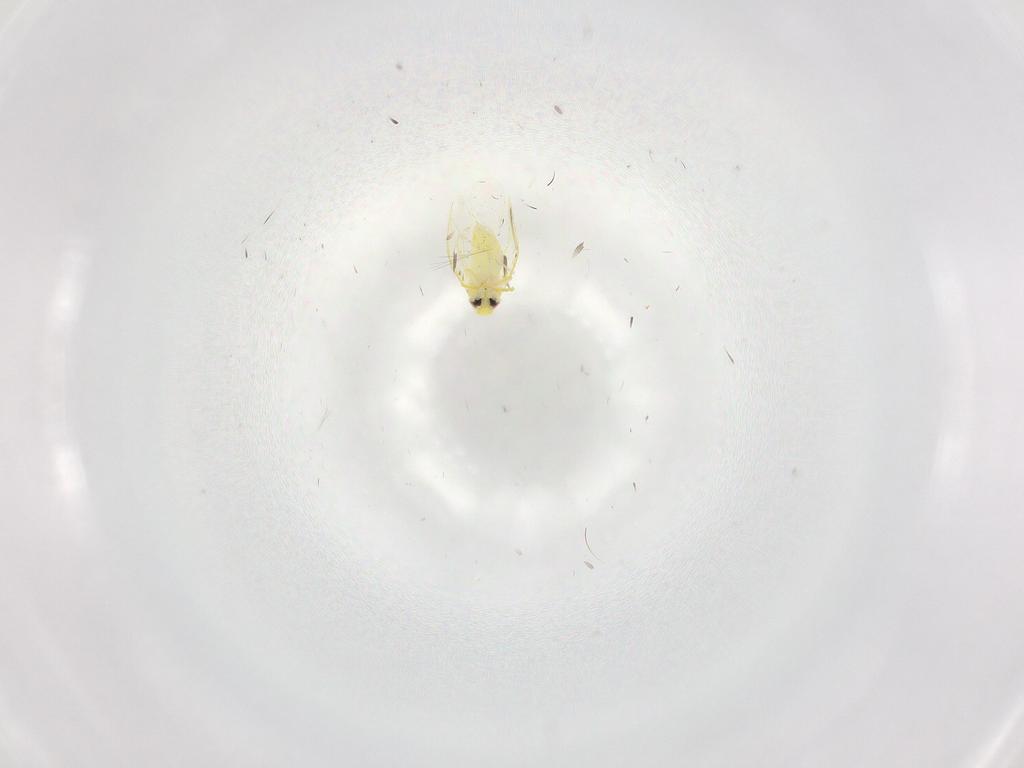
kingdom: Animalia
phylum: Arthropoda
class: Insecta
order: Hemiptera
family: Aleyrodidae
